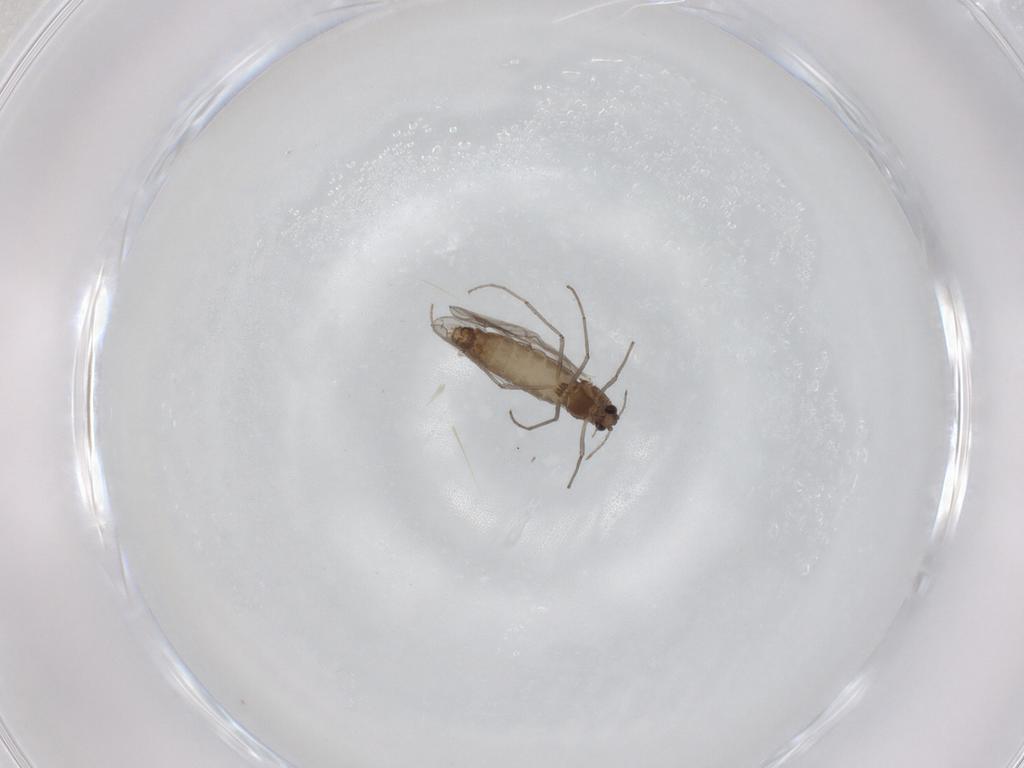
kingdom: Animalia
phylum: Arthropoda
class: Insecta
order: Diptera
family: Chironomidae
